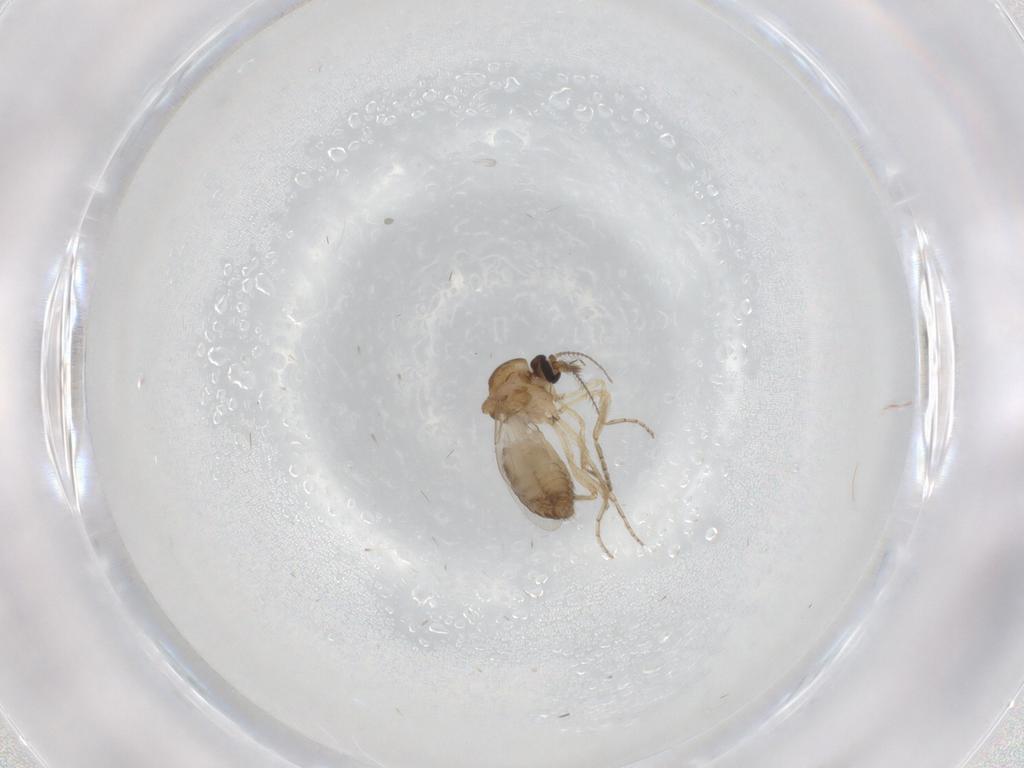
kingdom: Animalia
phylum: Arthropoda
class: Insecta
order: Diptera
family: Ceratopogonidae
